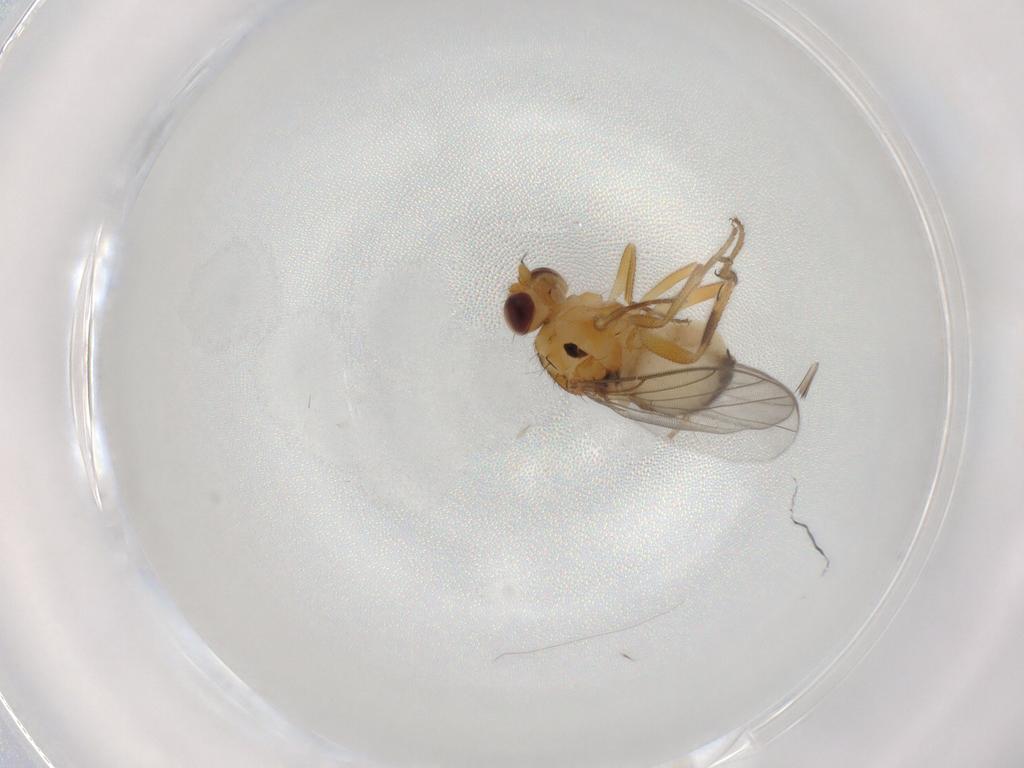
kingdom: Animalia
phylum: Arthropoda
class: Insecta
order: Diptera
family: Chloropidae
